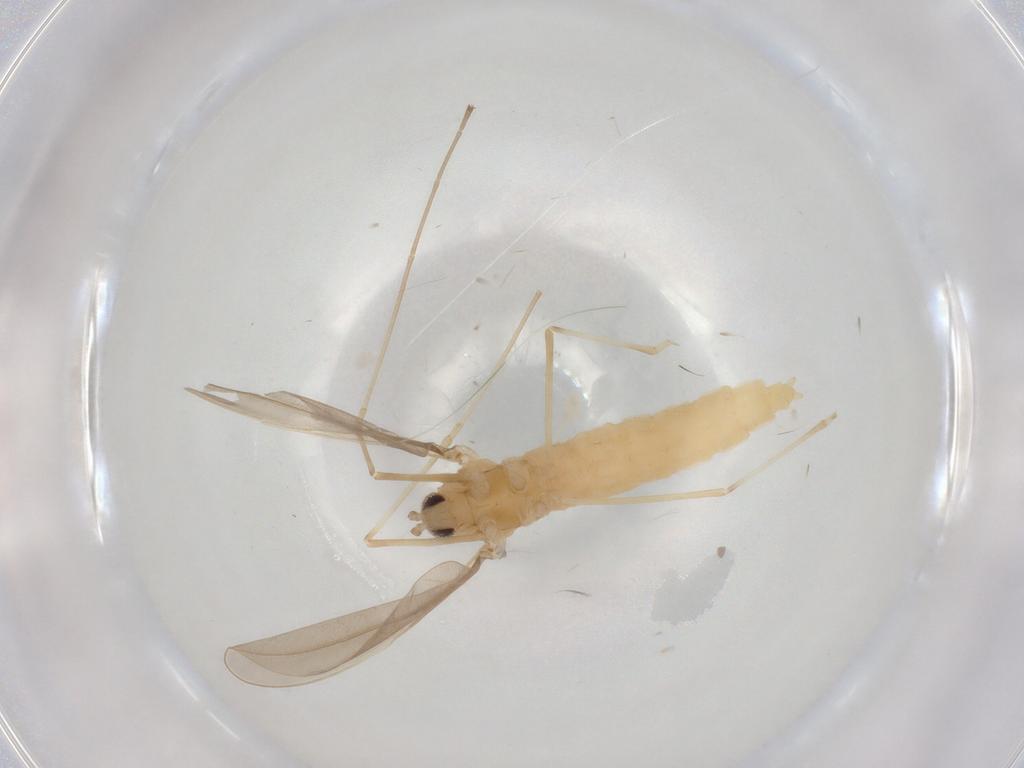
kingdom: Animalia
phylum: Arthropoda
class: Insecta
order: Diptera
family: Cecidomyiidae
